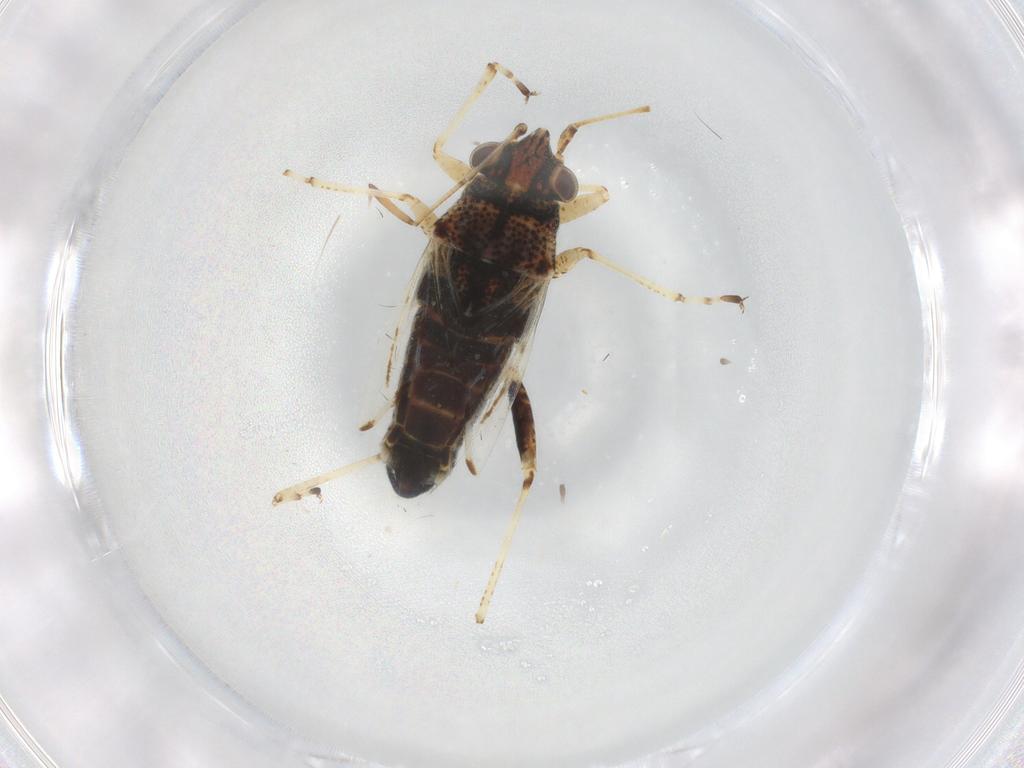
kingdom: Animalia
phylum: Arthropoda
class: Insecta
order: Hemiptera
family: Lygaeidae
